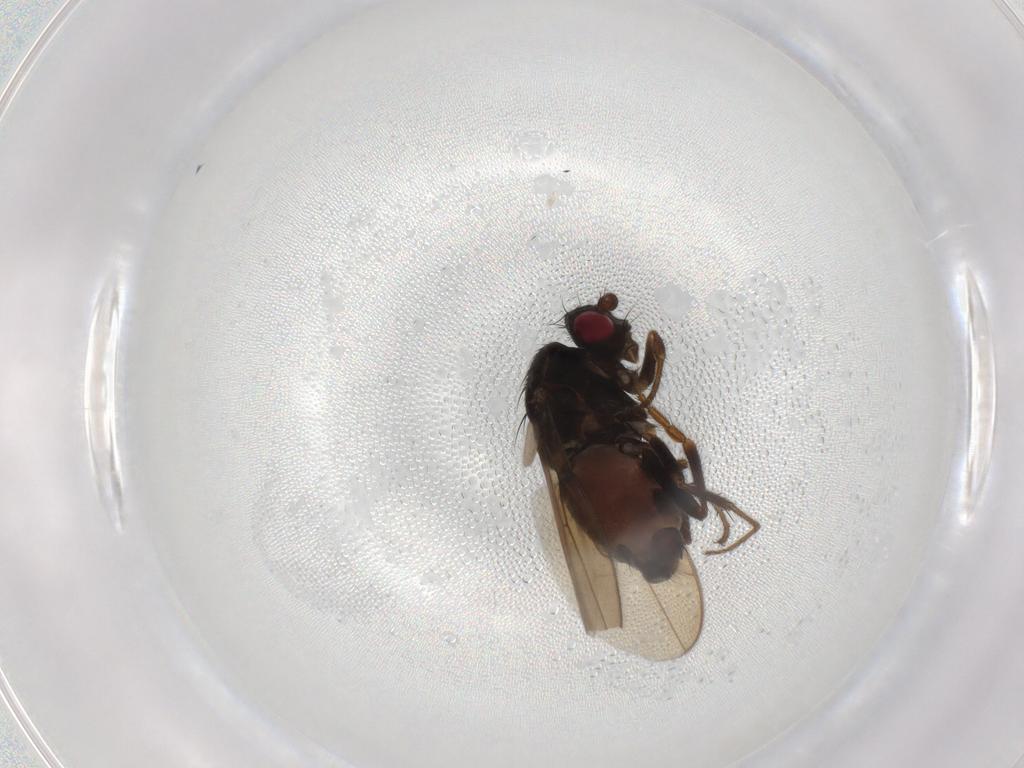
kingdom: Animalia
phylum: Arthropoda
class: Insecta
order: Diptera
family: Sphaeroceridae
